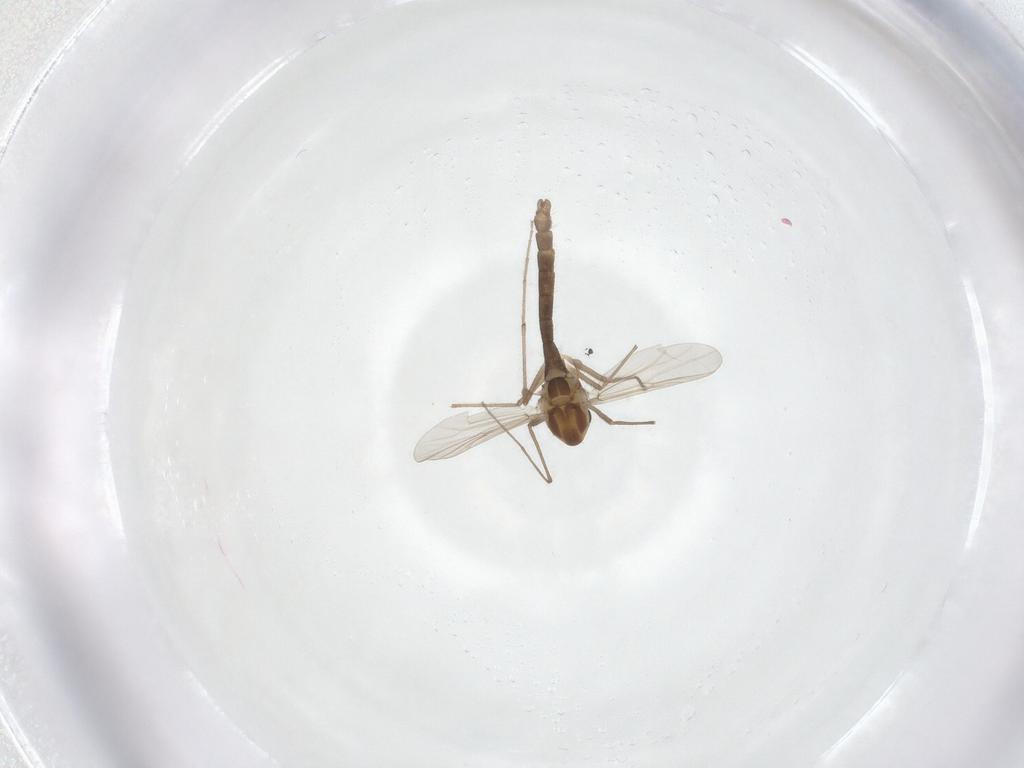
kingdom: Animalia
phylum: Arthropoda
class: Insecta
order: Diptera
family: Chironomidae
